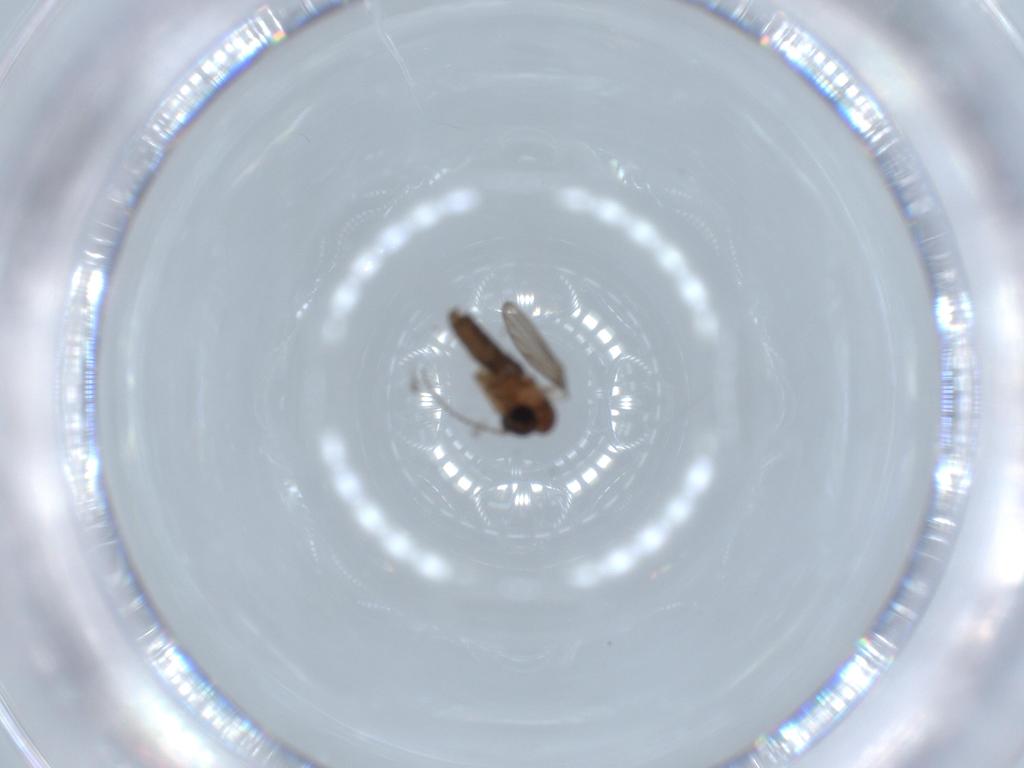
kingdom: Animalia
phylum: Arthropoda
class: Insecta
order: Diptera
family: Psychodidae
